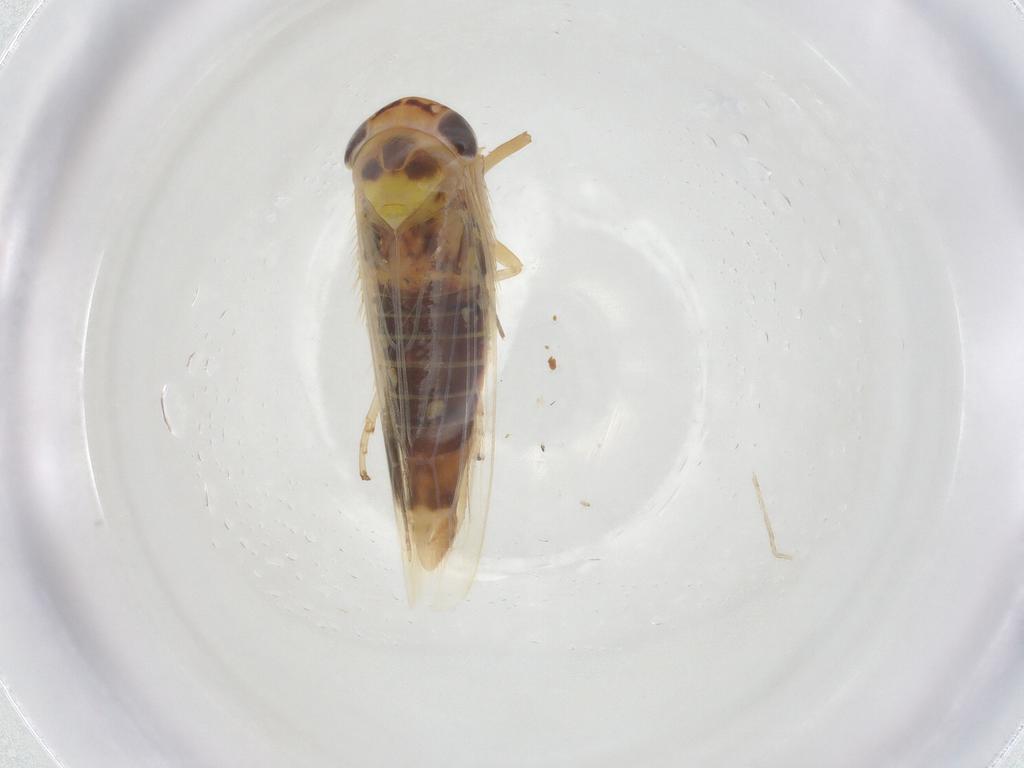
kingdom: Animalia
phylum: Arthropoda
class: Insecta
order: Hemiptera
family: Cicadellidae
